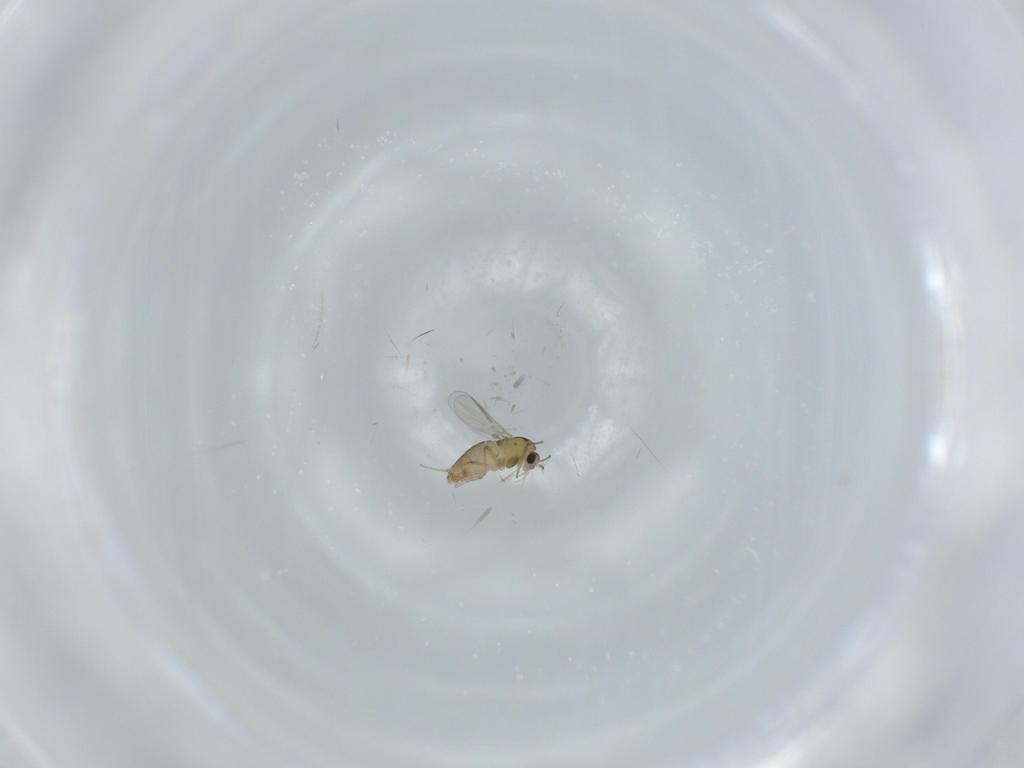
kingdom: Animalia
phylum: Arthropoda
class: Insecta
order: Diptera
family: Chironomidae
